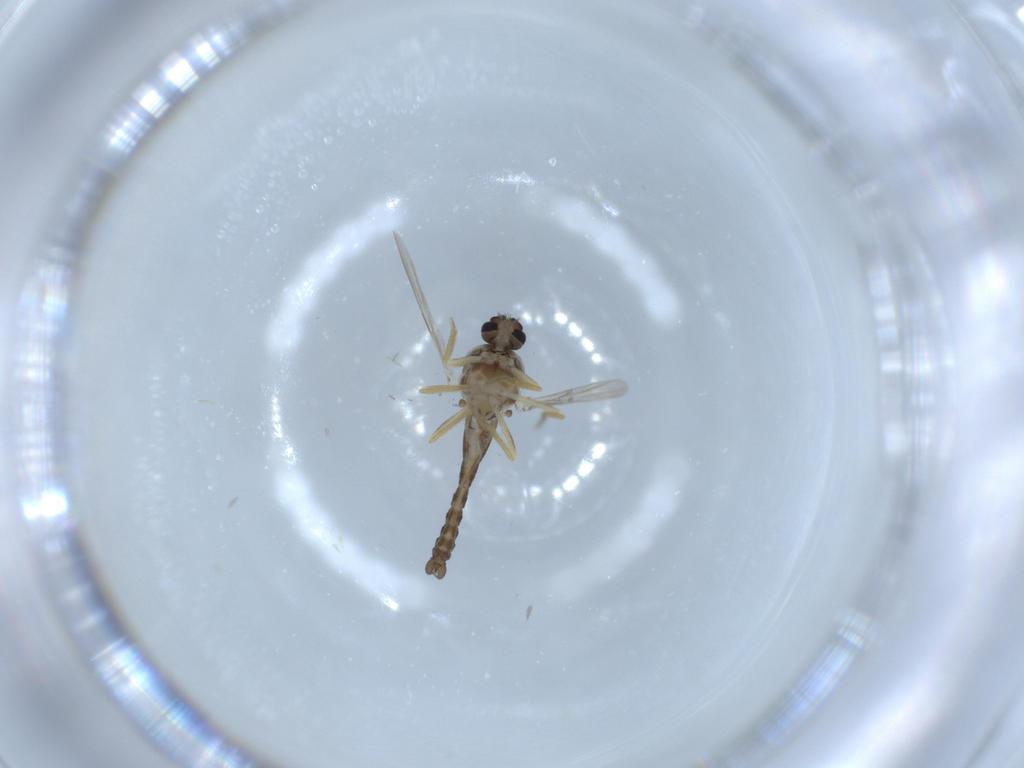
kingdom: Animalia
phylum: Arthropoda
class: Insecta
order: Diptera
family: Ceratopogonidae
